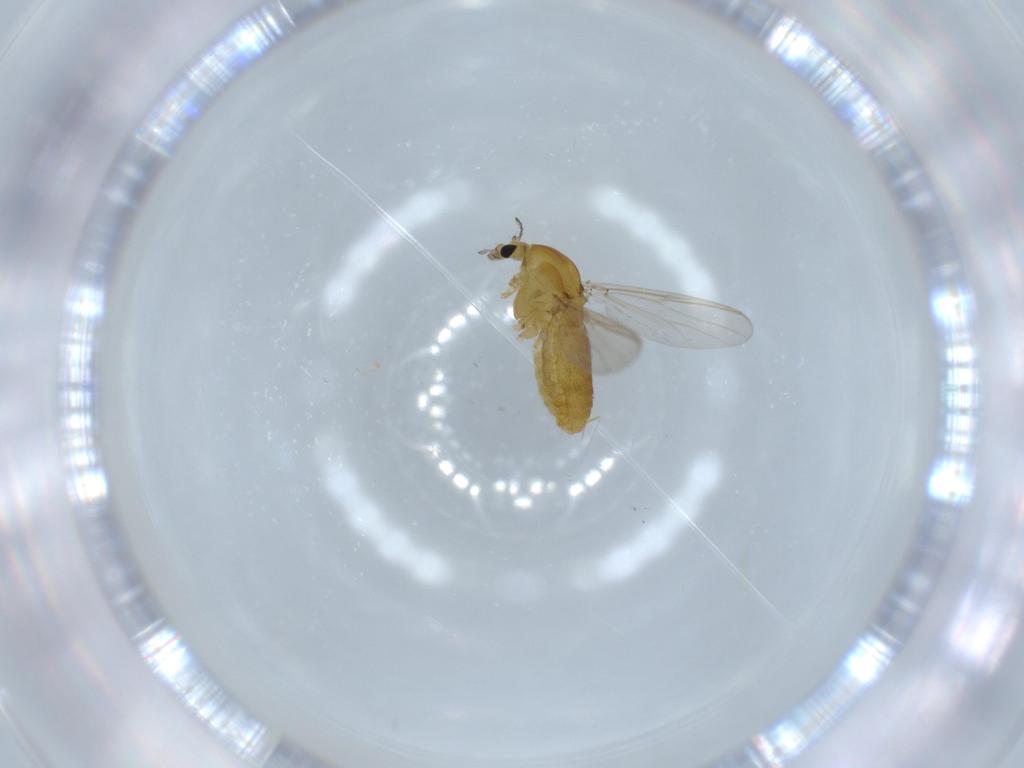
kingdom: Animalia
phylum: Arthropoda
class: Insecta
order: Diptera
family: Chironomidae
